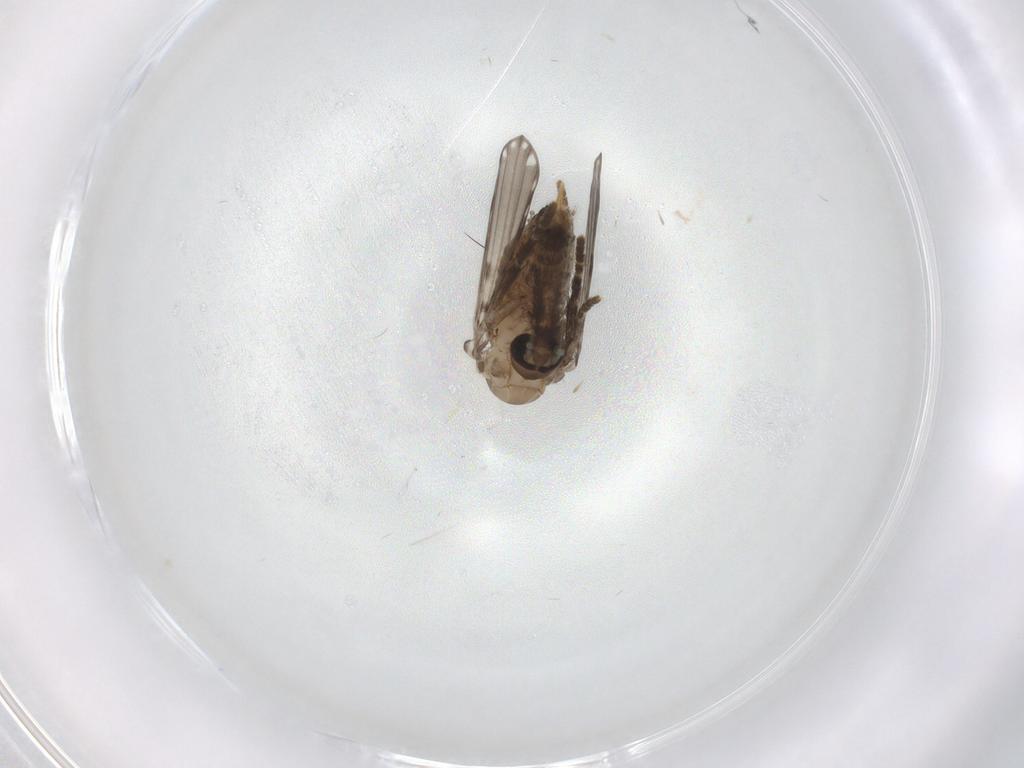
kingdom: Animalia
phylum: Arthropoda
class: Insecta
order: Diptera
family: Psychodidae
